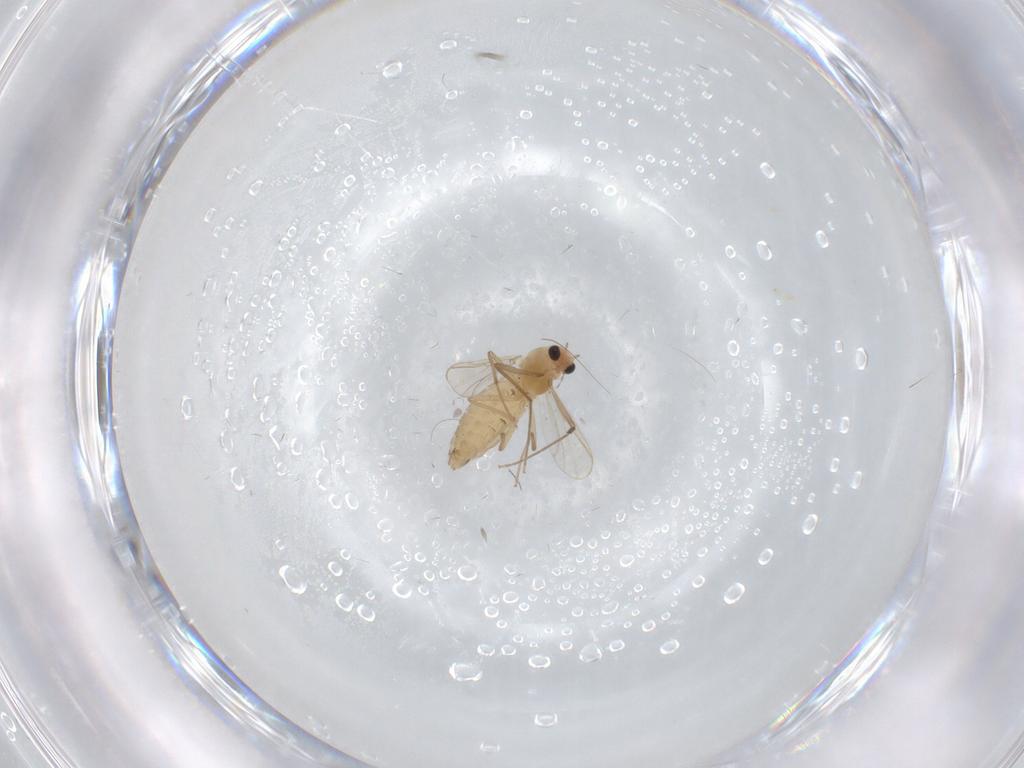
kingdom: Animalia
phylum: Arthropoda
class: Insecta
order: Diptera
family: Chironomidae
